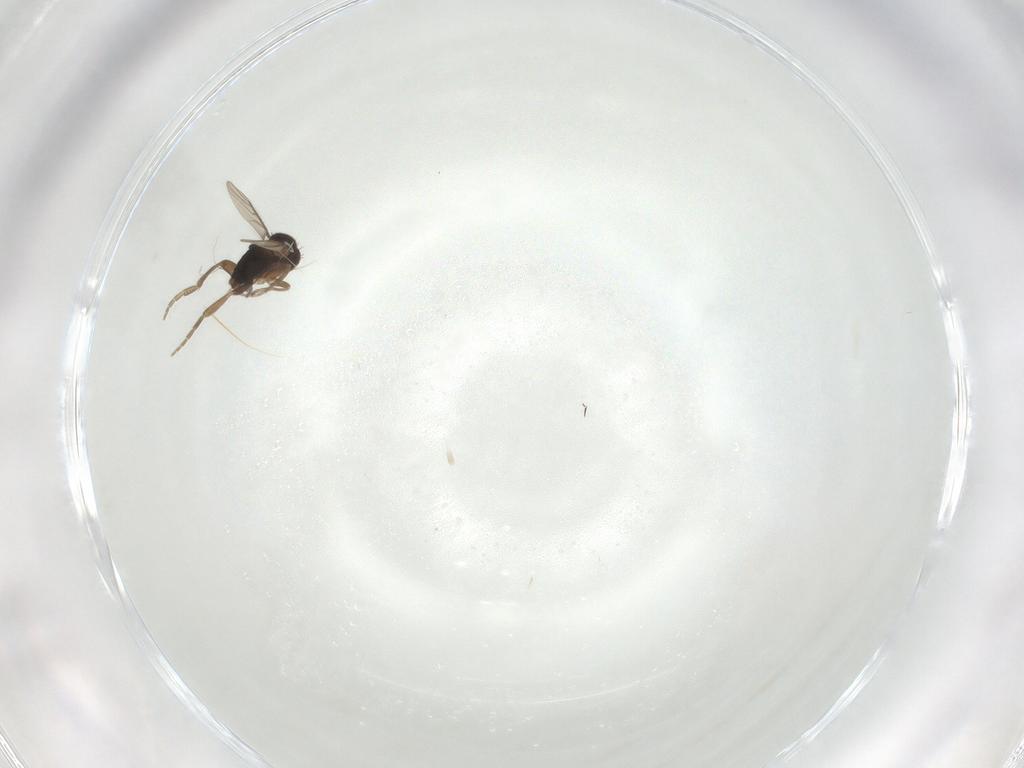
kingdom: Animalia
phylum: Arthropoda
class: Insecta
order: Diptera
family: Phoridae
